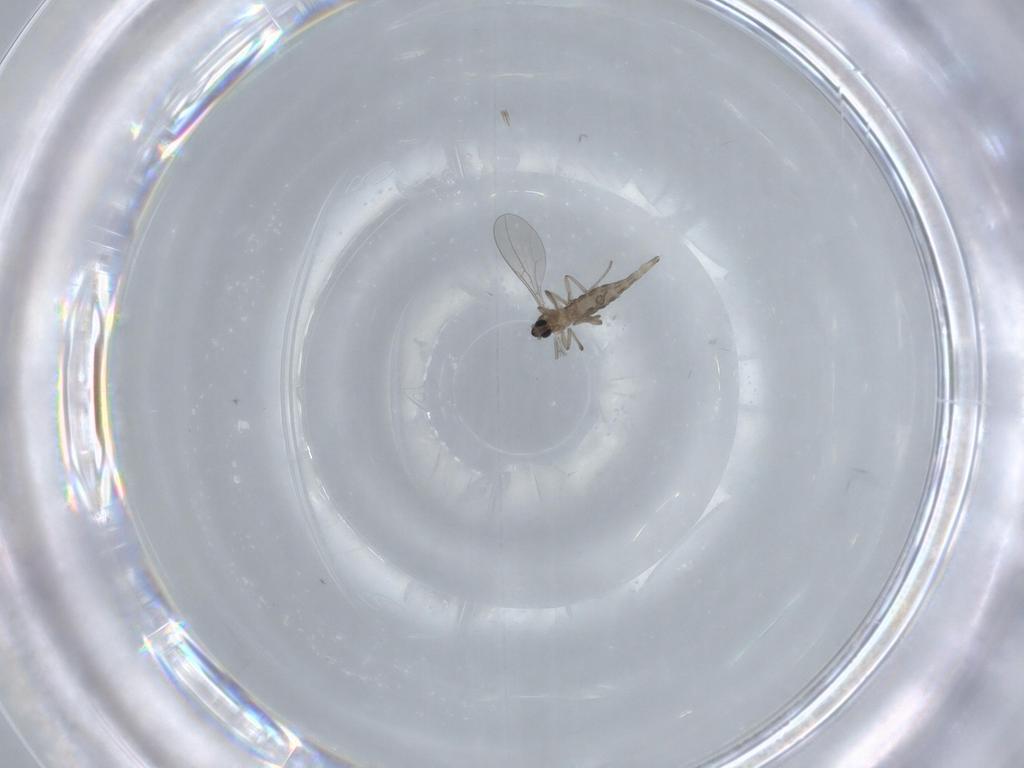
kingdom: Animalia
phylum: Arthropoda
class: Insecta
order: Diptera
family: Cecidomyiidae
